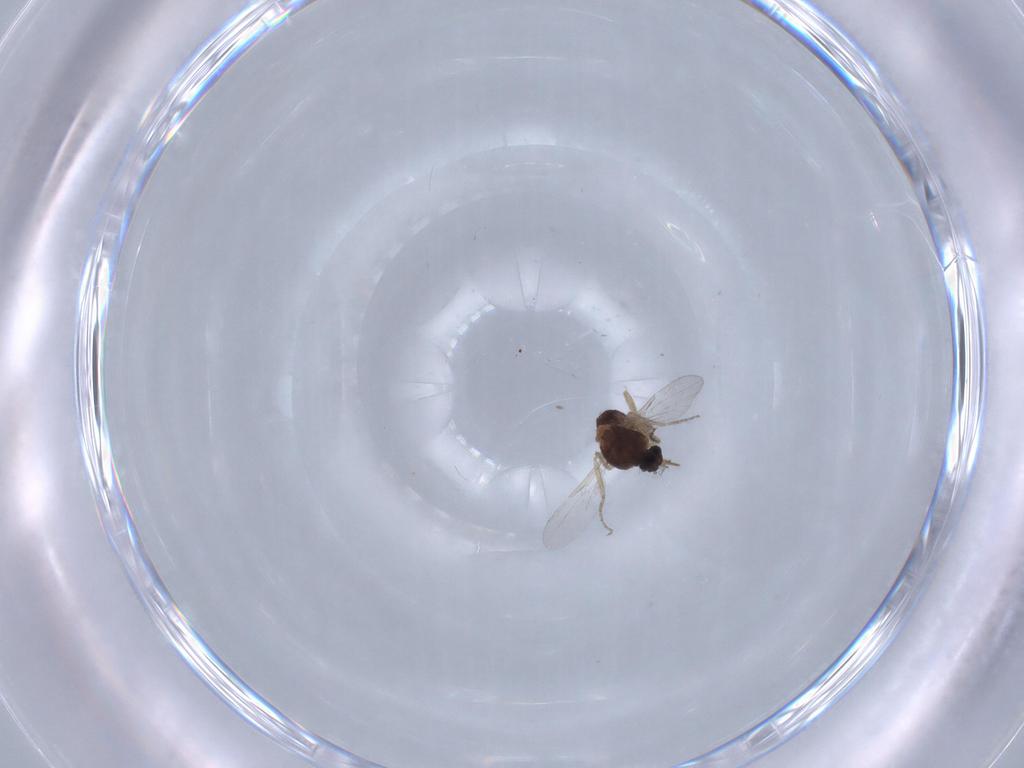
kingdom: Animalia
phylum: Arthropoda
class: Insecta
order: Diptera
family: Ceratopogonidae
